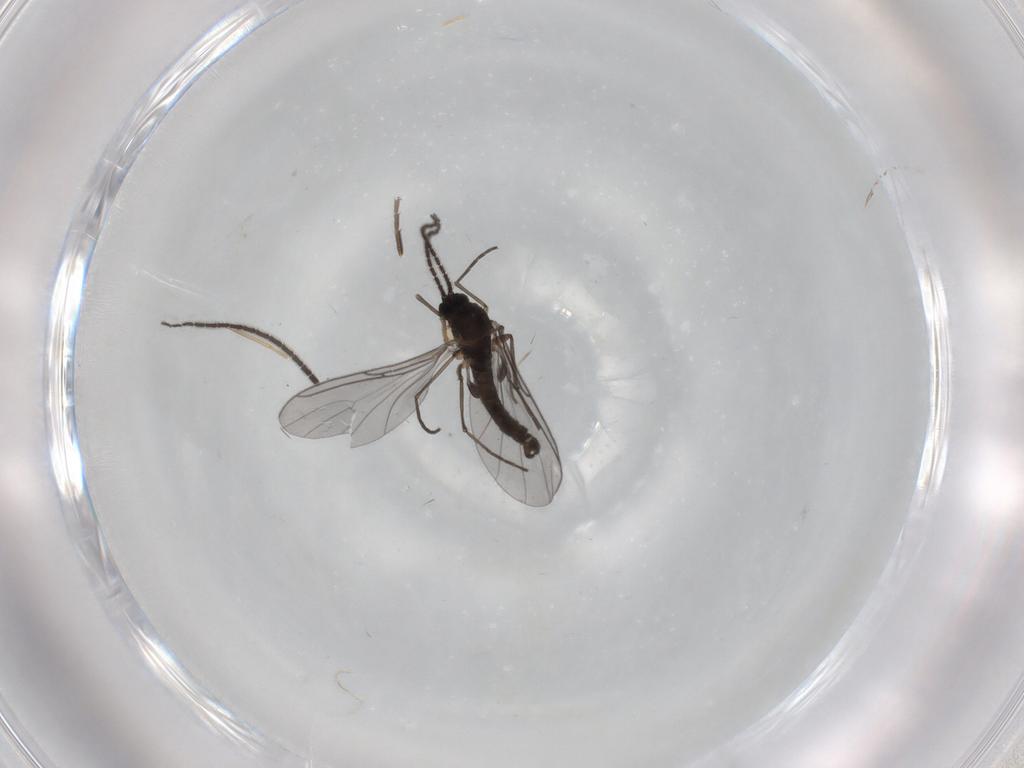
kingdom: Animalia
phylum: Arthropoda
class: Insecta
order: Diptera
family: Sciaridae
